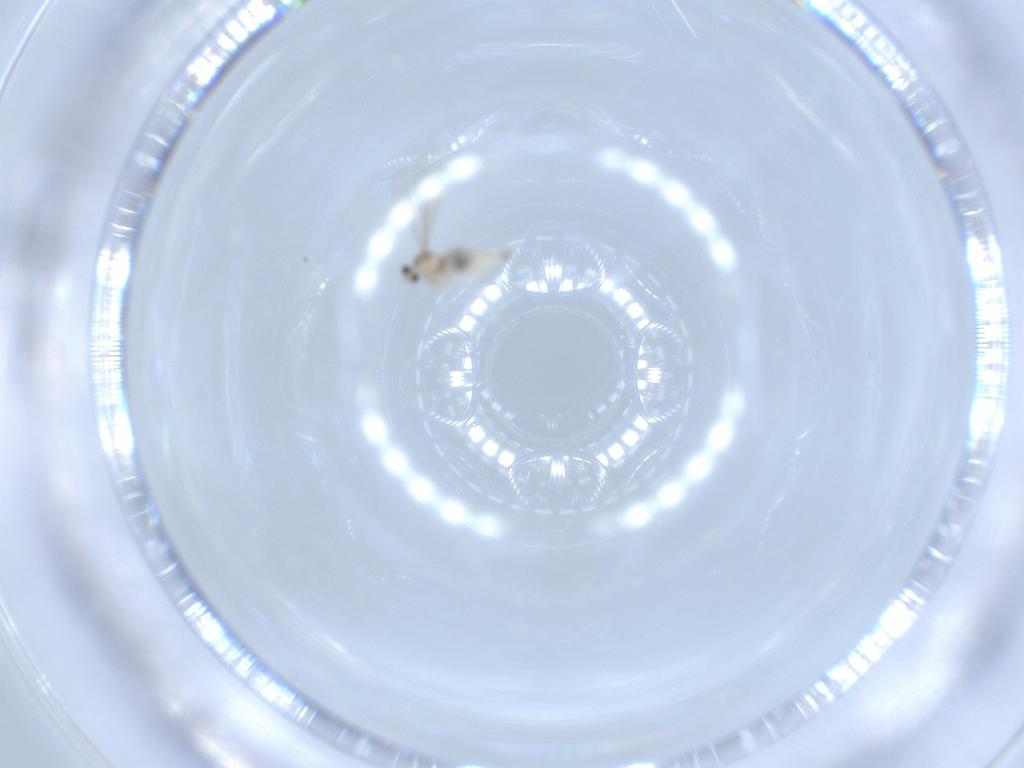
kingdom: Animalia
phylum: Arthropoda
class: Insecta
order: Diptera
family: Cecidomyiidae
